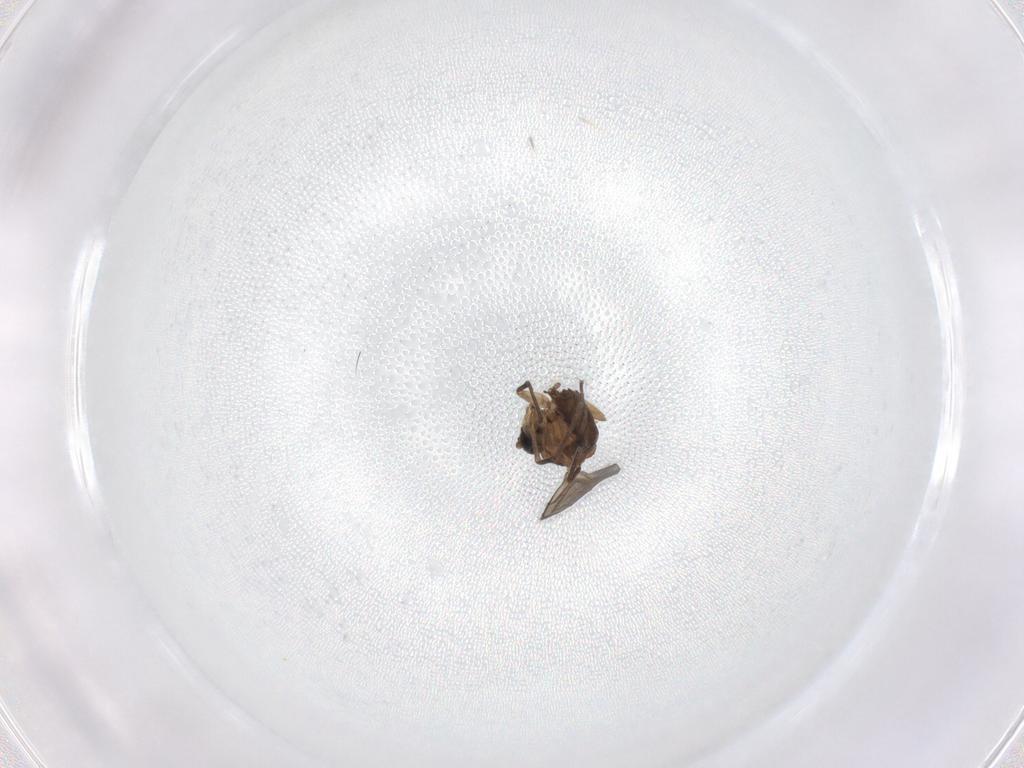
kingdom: Animalia
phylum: Arthropoda
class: Insecta
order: Diptera
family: Sciaridae
